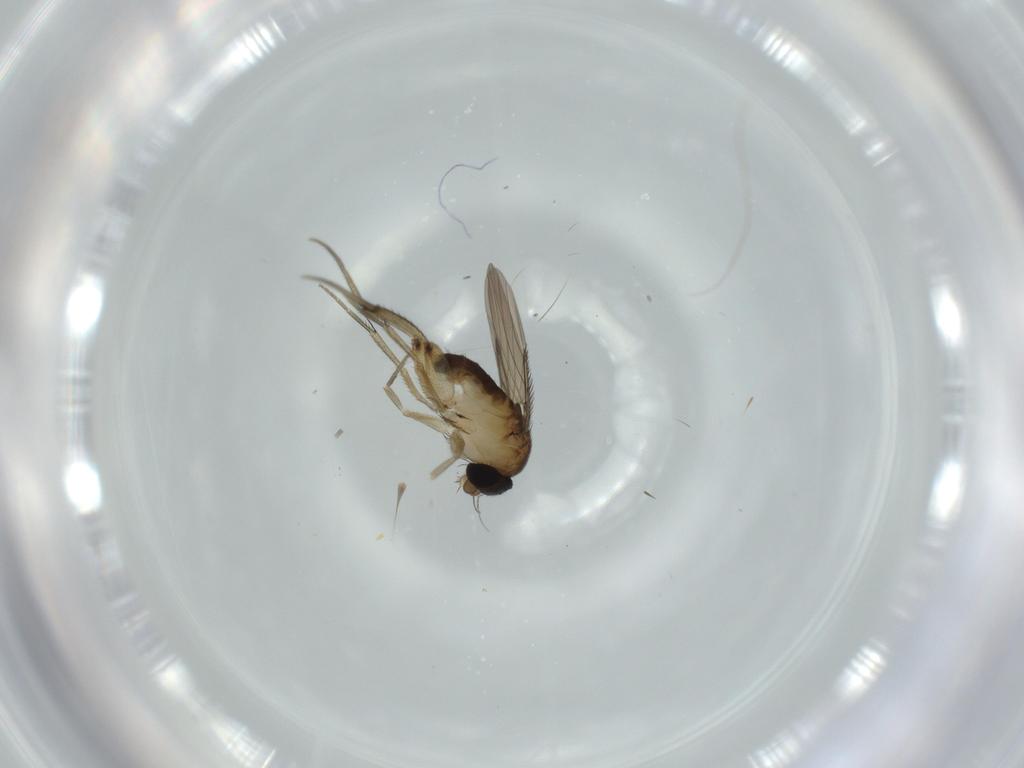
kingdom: Animalia
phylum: Arthropoda
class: Insecta
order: Diptera
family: Phoridae
